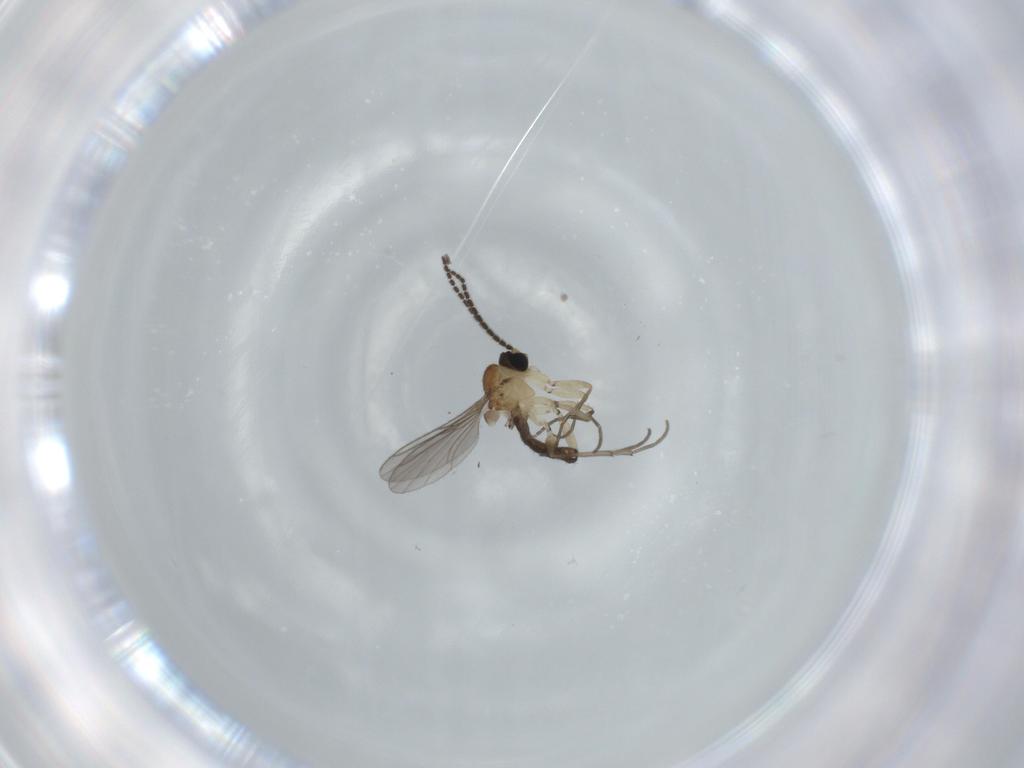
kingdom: Animalia
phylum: Arthropoda
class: Insecta
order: Diptera
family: Sciaridae
